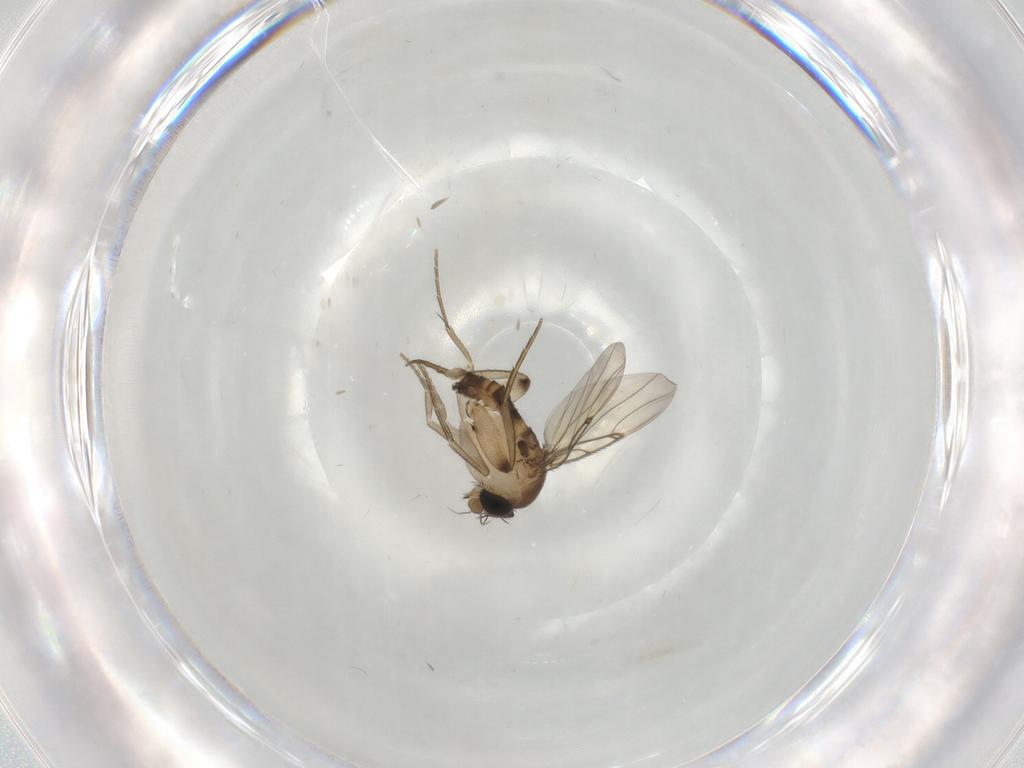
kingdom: Animalia
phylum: Arthropoda
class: Insecta
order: Diptera
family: Phoridae
